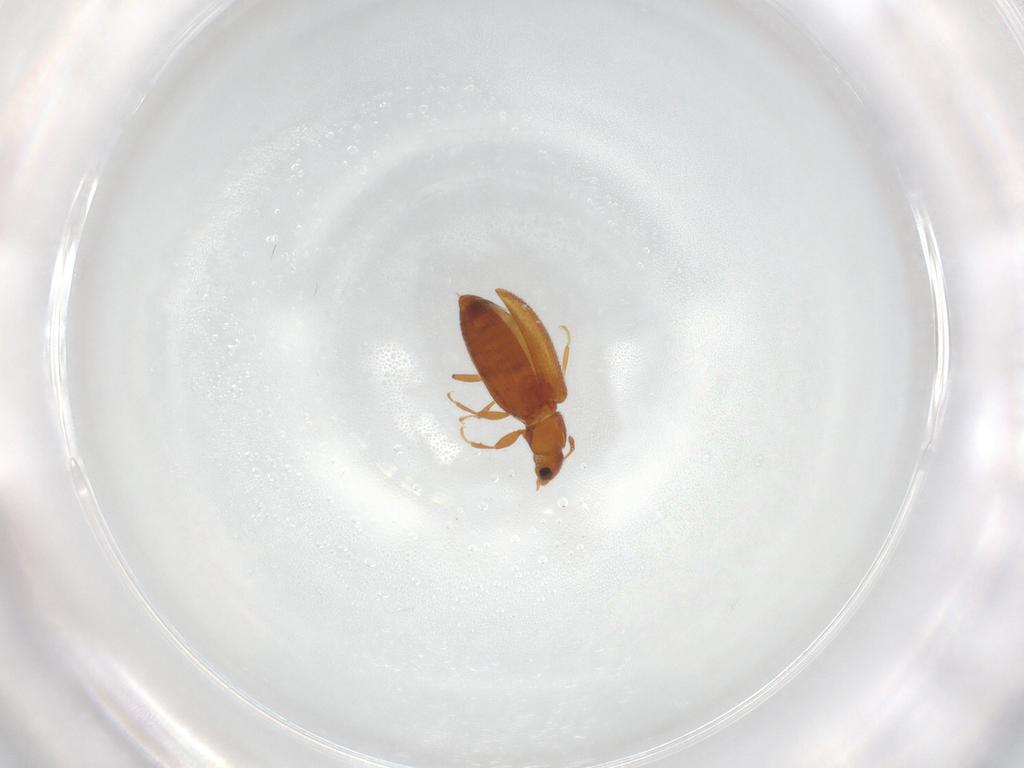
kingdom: Animalia
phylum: Arthropoda
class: Insecta
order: Coleoptera
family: Latridiidae
